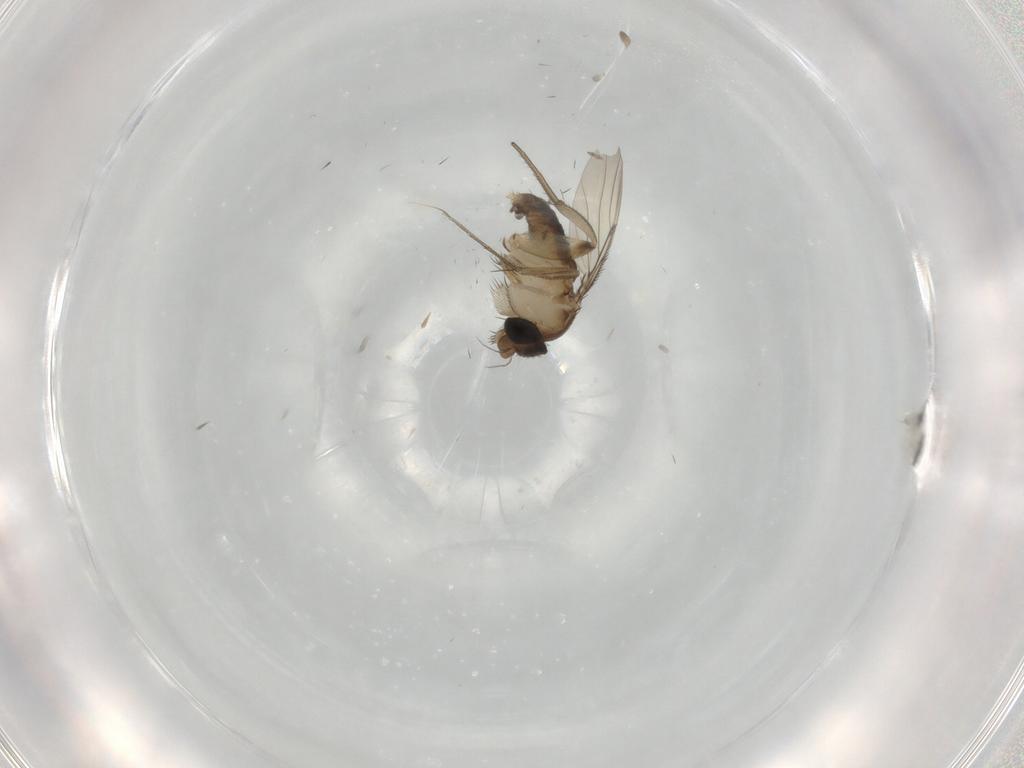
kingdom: Animalia
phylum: Arthropoda
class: Insecta
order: Diptera
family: Phoridae
